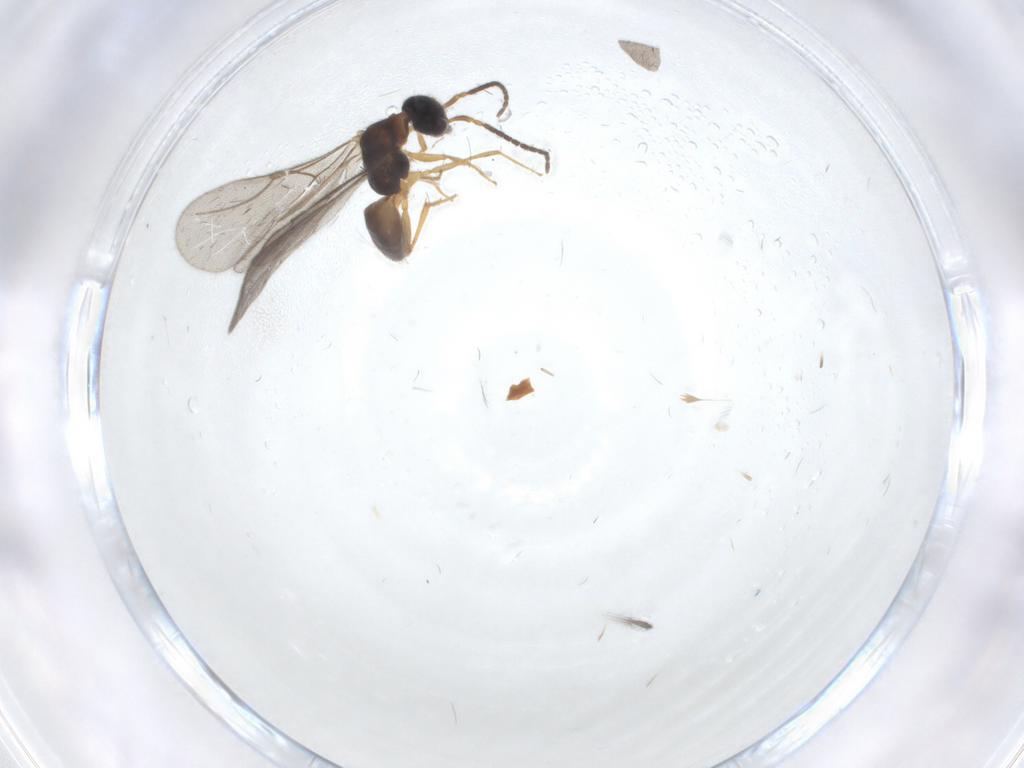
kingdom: Animalia
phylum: Arthropoda
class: Insecta
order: Hymenoptera
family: Bethylidae
